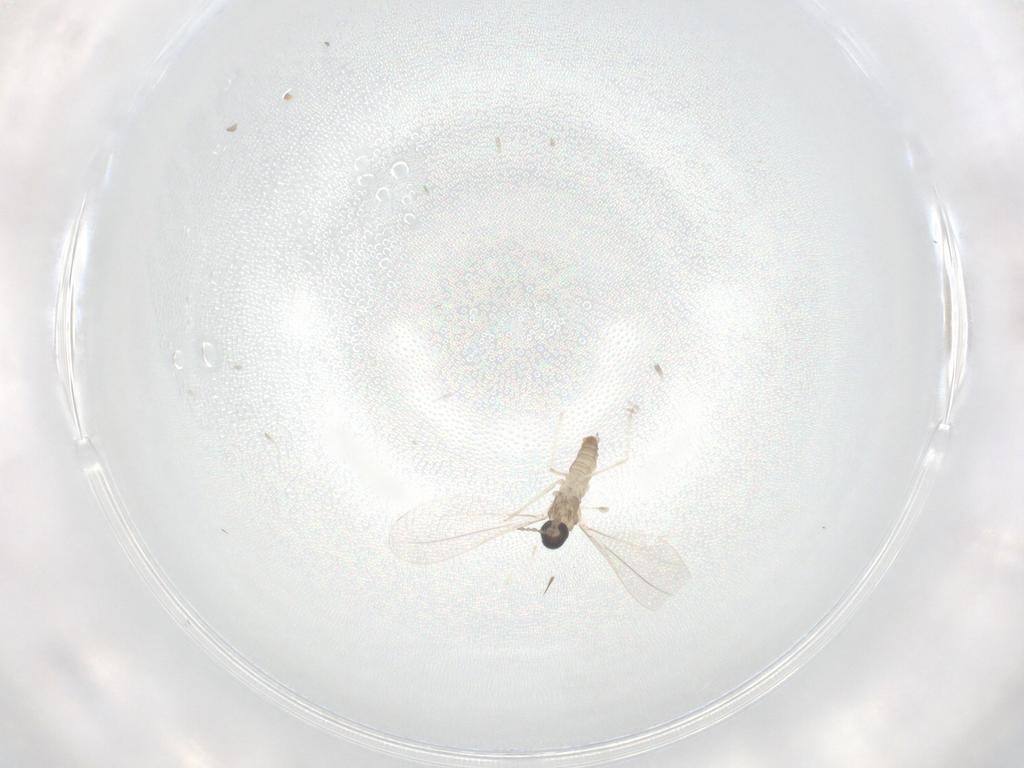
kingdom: Animalia
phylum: Arthropoda
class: Insecta
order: Diptera
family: Cecidomyiidae
